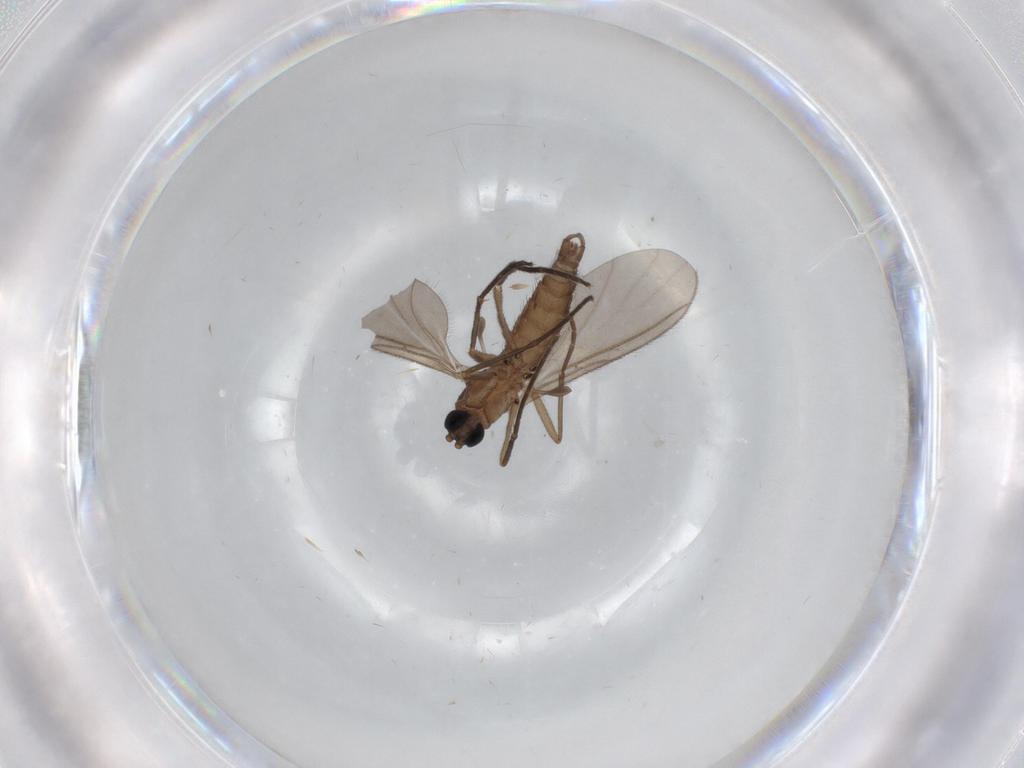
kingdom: Animalia
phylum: Arthropoda
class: Insecta
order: Diptera
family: Sciaridae
